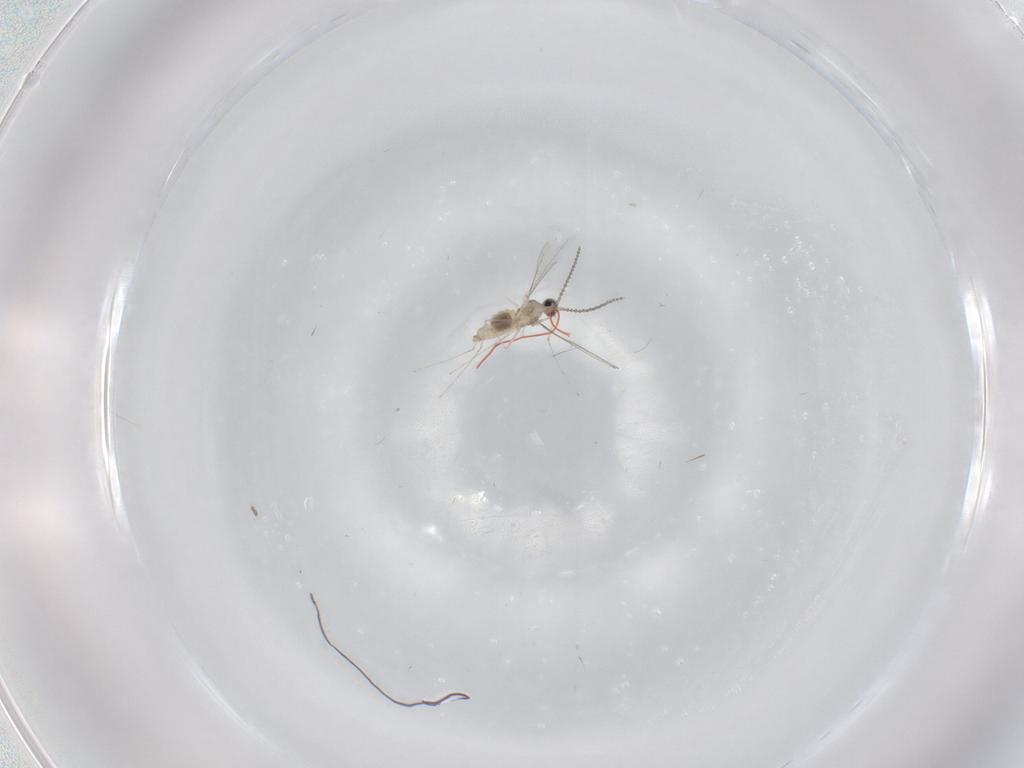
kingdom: Animalia
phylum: Arthropoda
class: Insecta
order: Diptera
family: Cecidomyiidae
